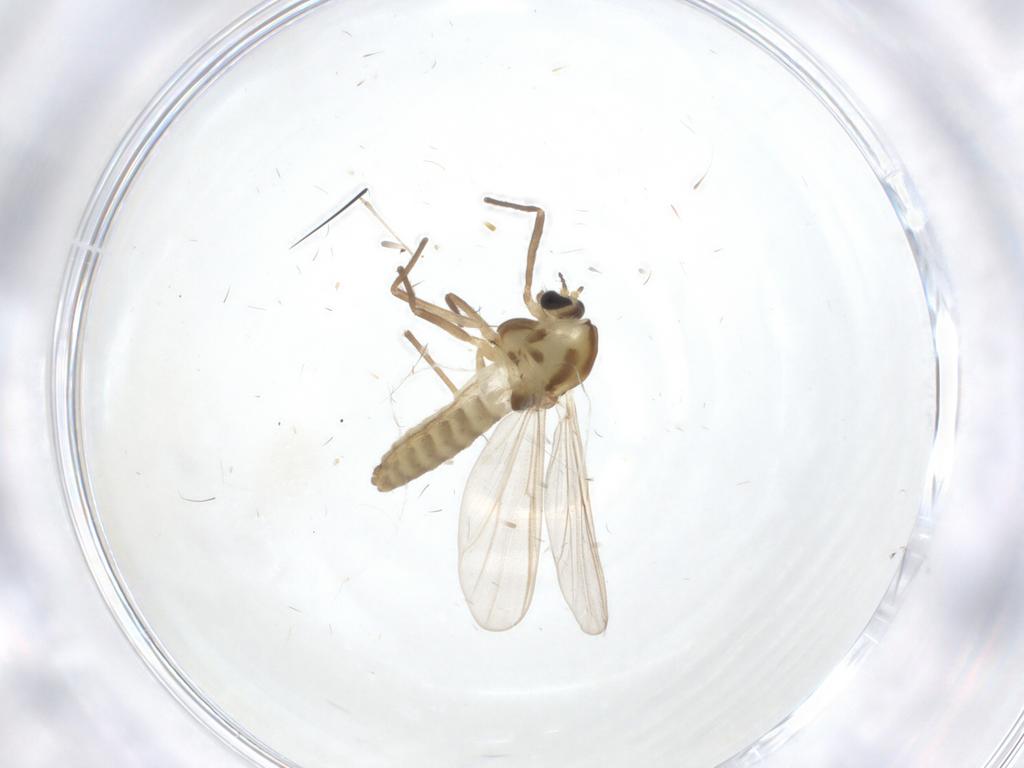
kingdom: Animalia
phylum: Arthropoda
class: Insecta
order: Diptera
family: Chironomidae
